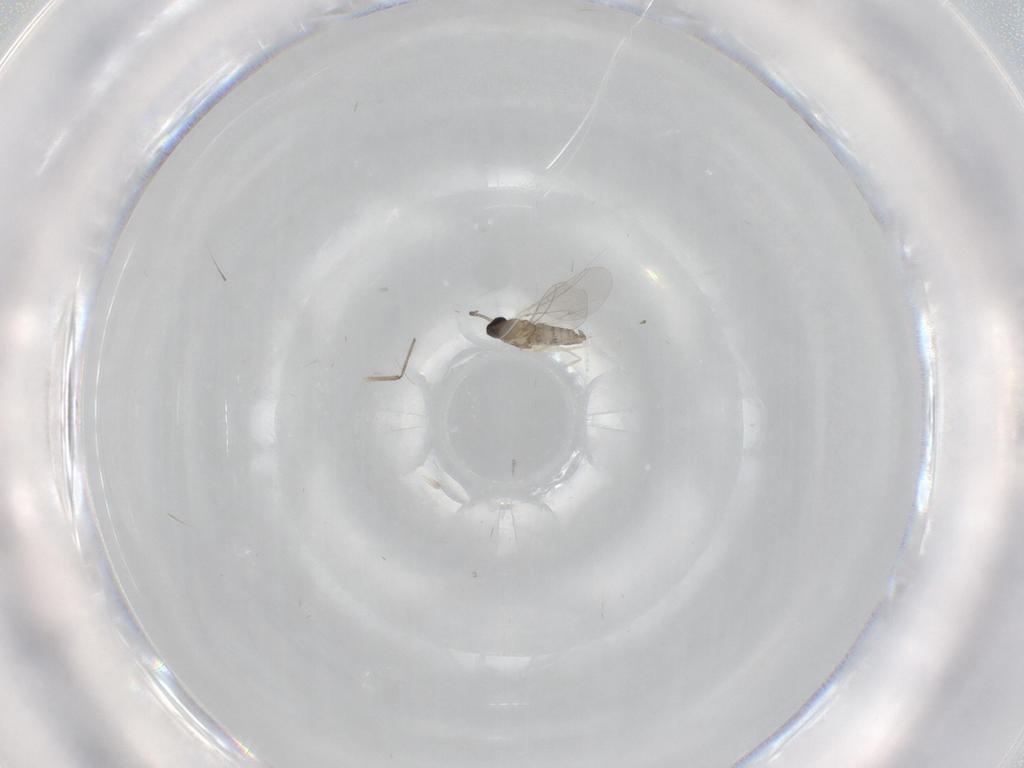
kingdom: Animalia
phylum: Arthropoda
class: Insecta
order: Diptera
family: Cecidomyiidae
